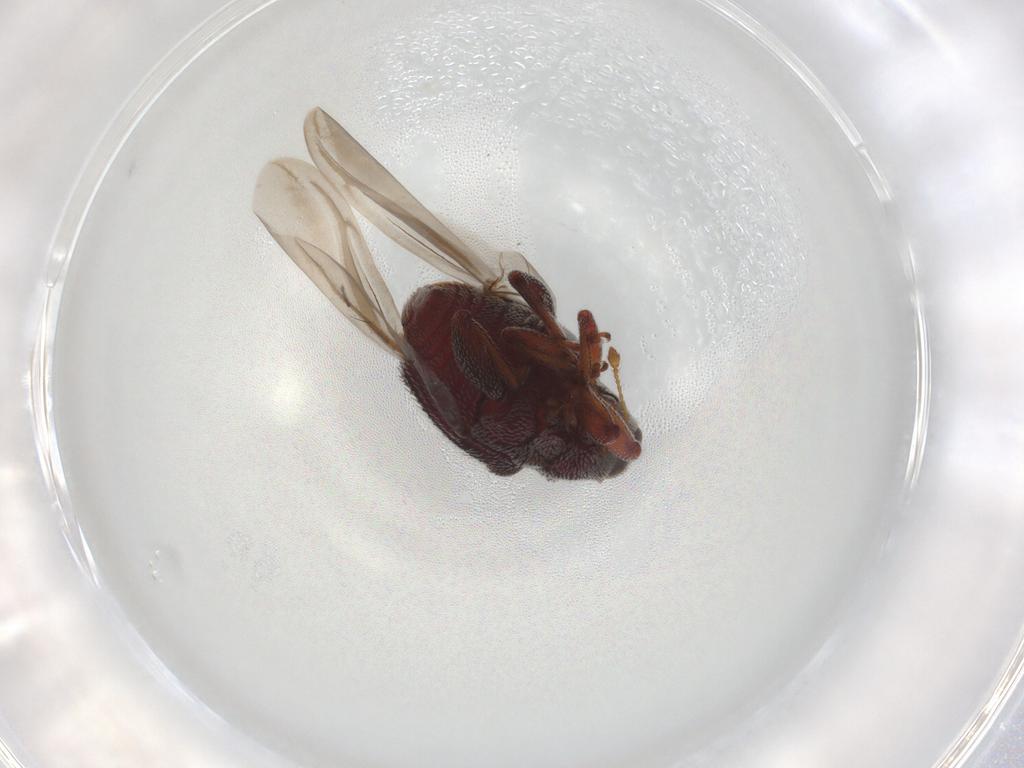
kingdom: Animalia
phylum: Arthropoda
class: Insecta
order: Coleoptera
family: Curculionidae
